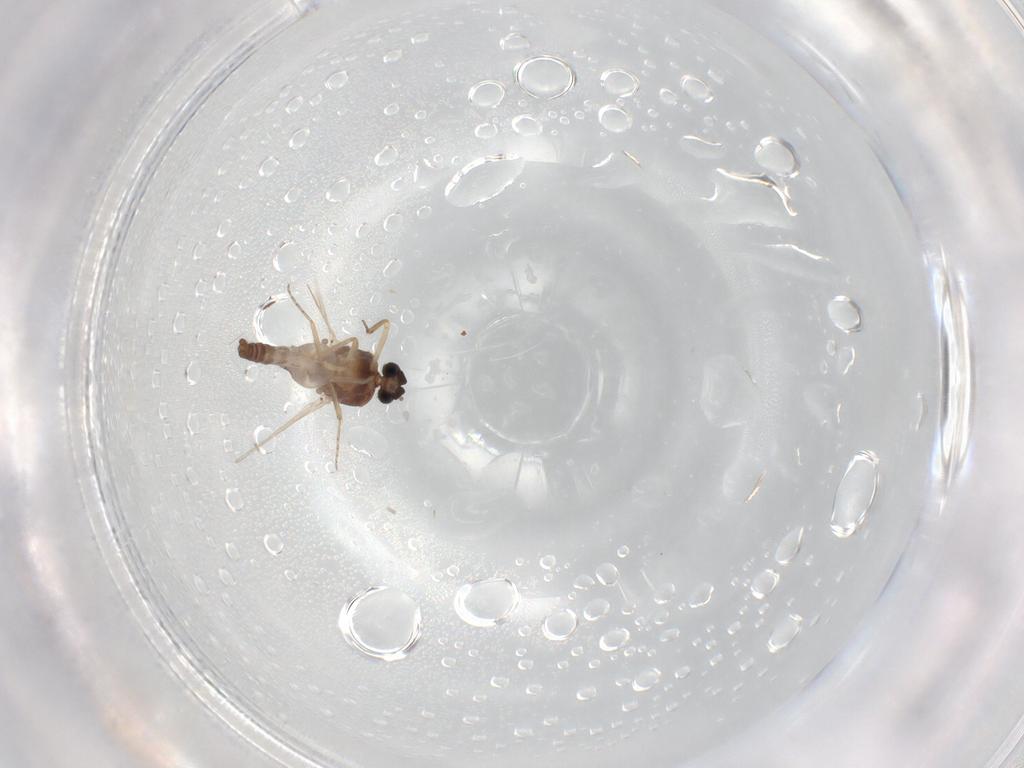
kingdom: Animalia
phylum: Arthropoda
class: Insecta
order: Diptera
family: Ceratopogonidae
